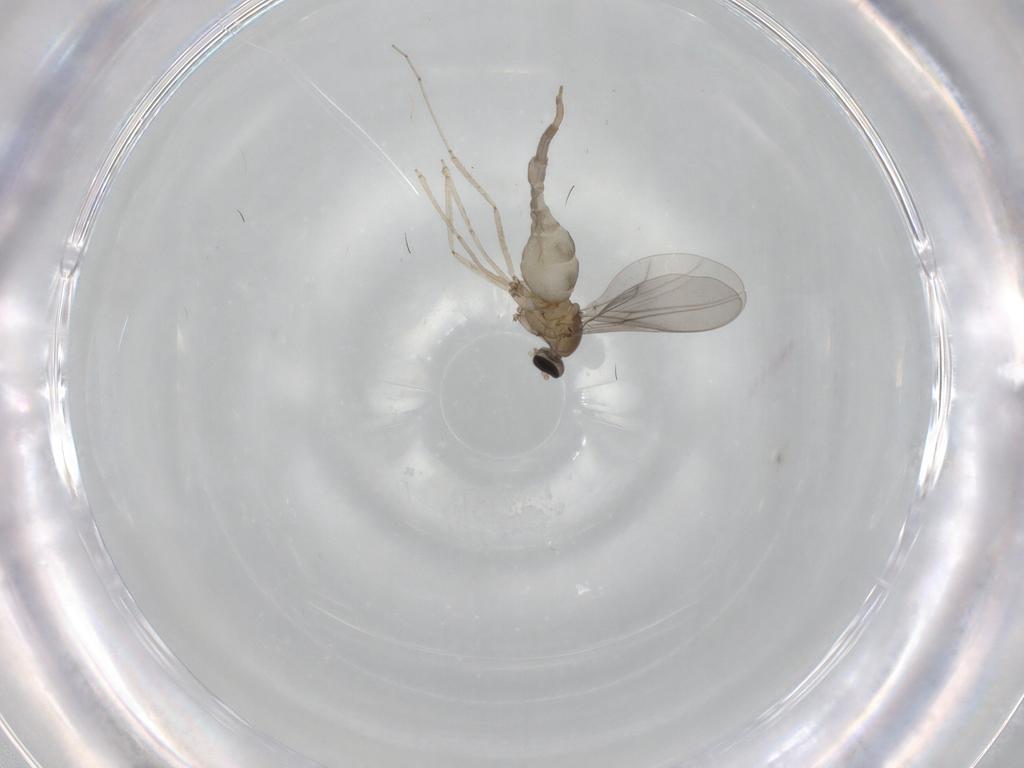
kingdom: Animalia
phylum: Arthropoda
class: Insecta
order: Diptera
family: Cecidomyiidae
